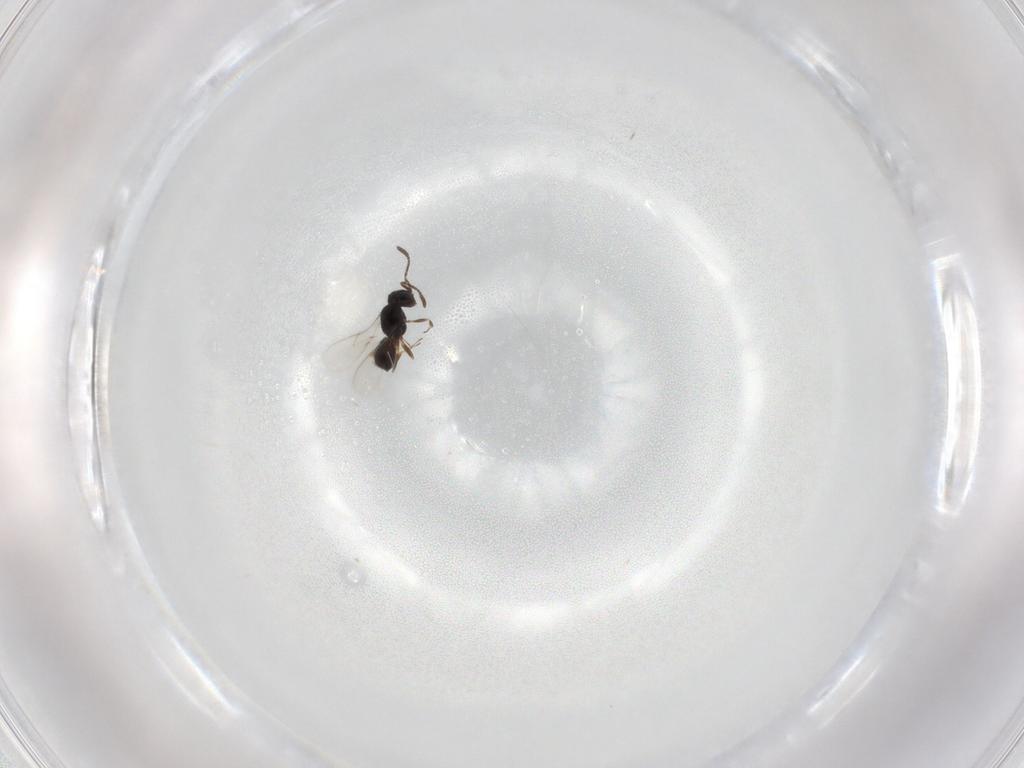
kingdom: Animalia
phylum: Arthropoda
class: Insecta
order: Hymenoptera
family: Scelionidae
